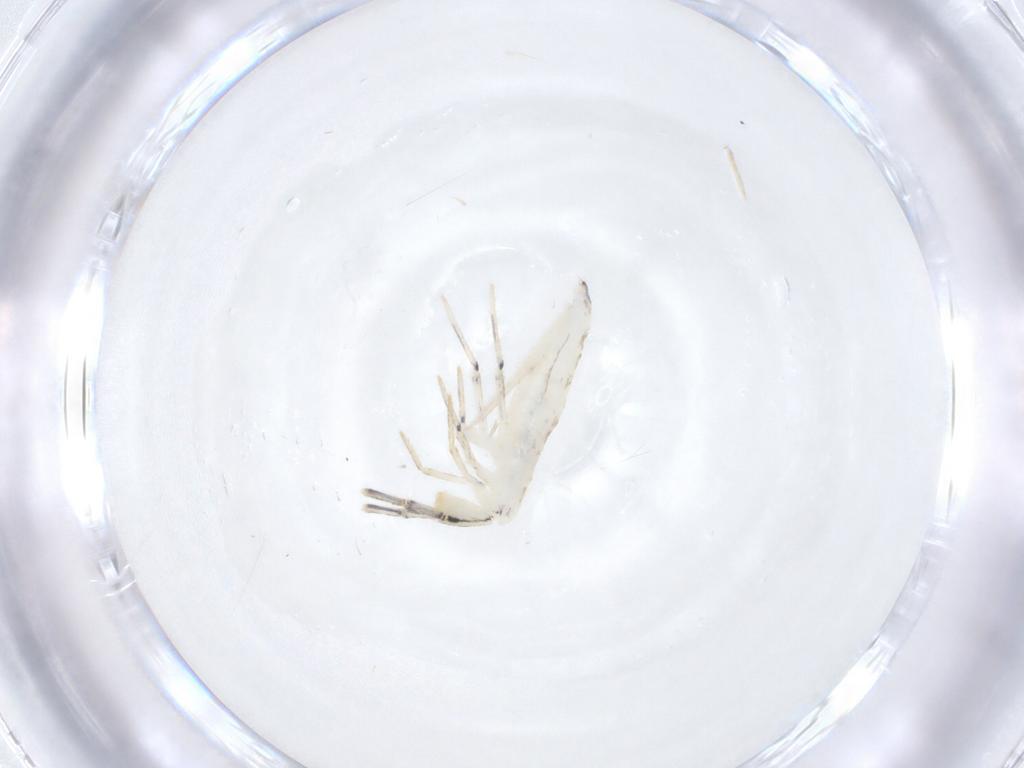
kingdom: Animalia
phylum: Arthropoda
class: Collembola
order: Entomobryomorpha
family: Entomobryidae
